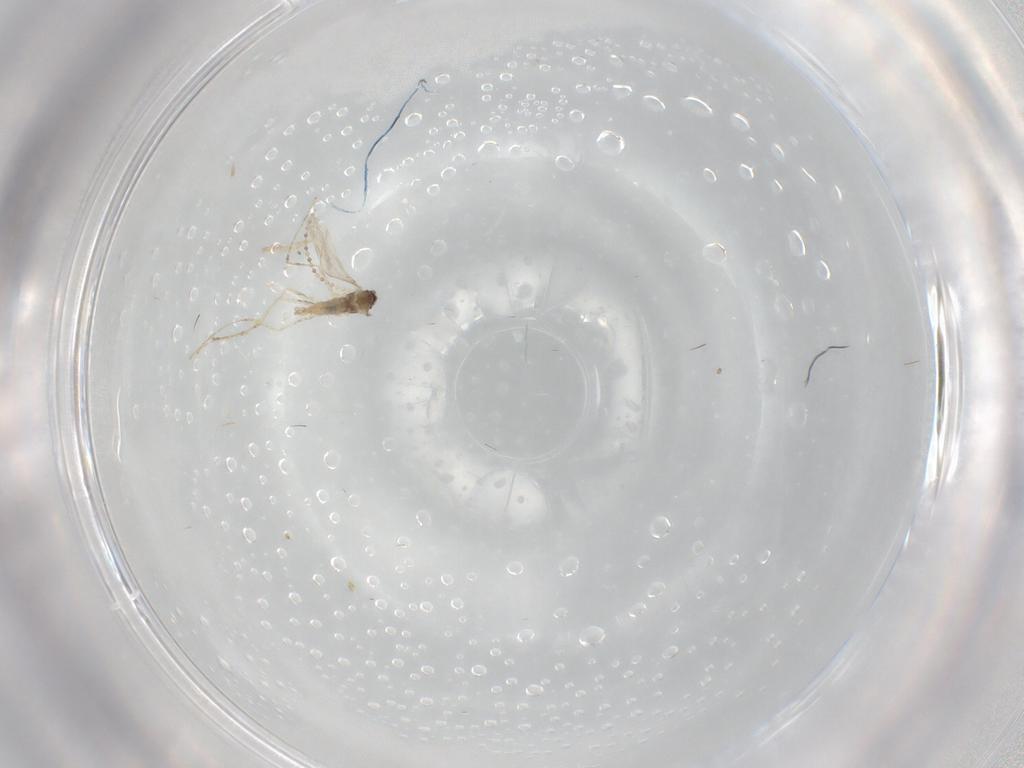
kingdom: Animalia
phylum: Arthropoda
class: Insecta
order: Diptera
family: Cecidomyiidae
